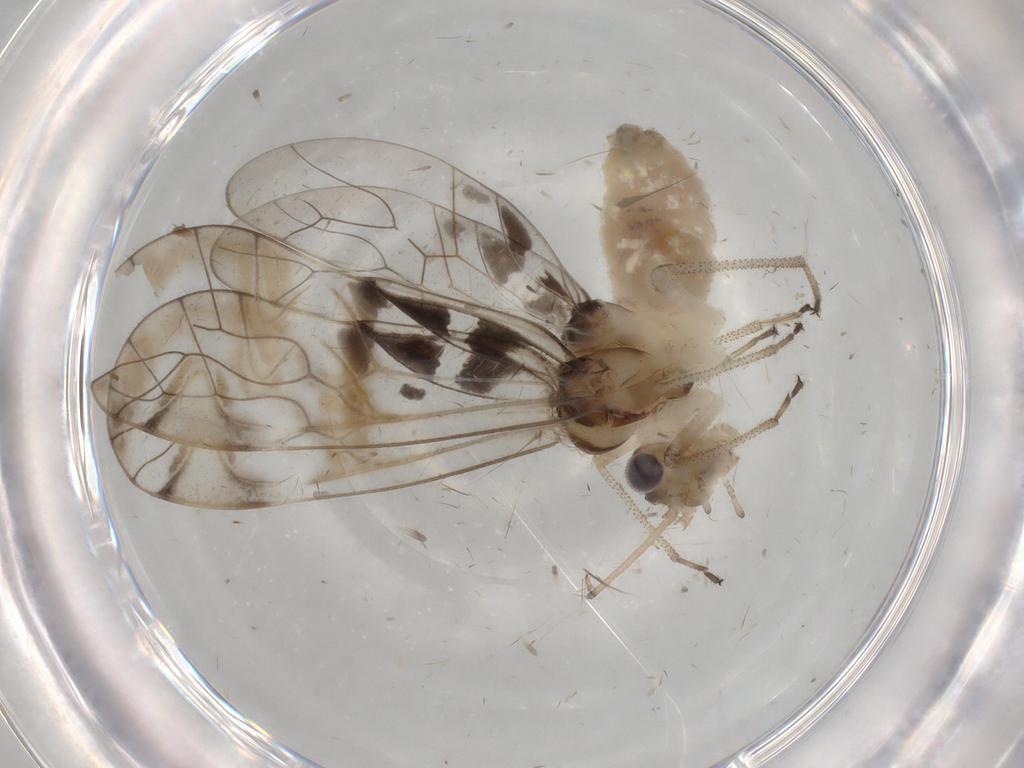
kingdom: Animalia
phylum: Arthropoda
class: Insecta
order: Psocodea
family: Amphipsocidae
